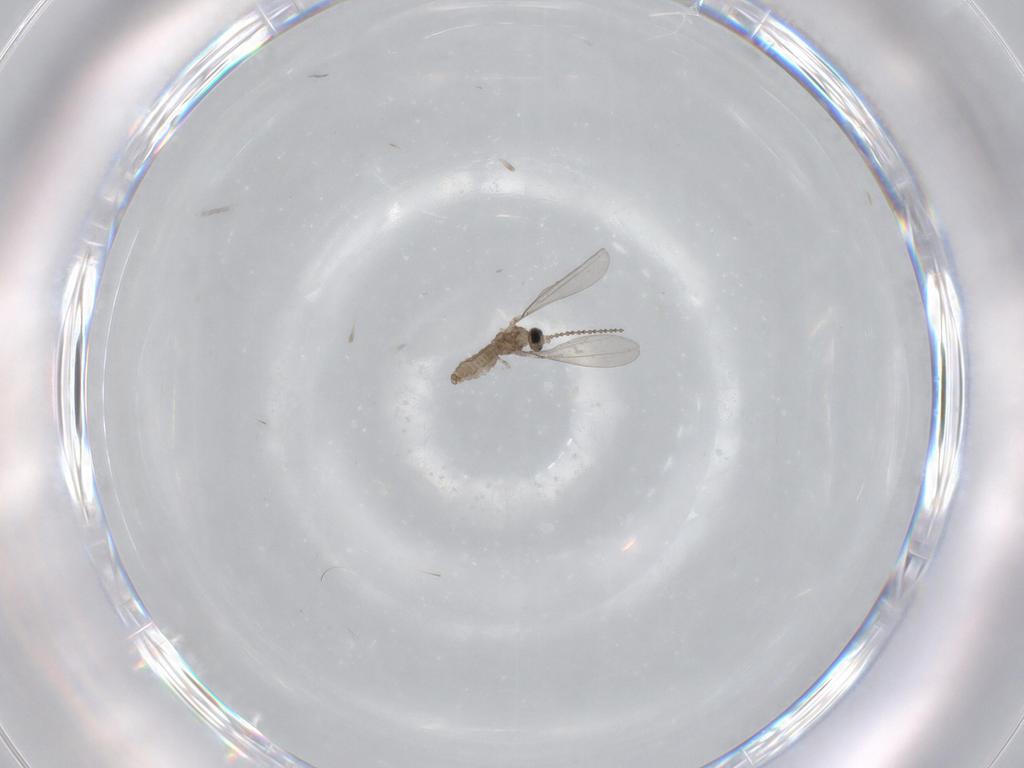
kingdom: Animalia
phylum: Arthropoda
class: Insecta
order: Diptera
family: Cecidomyiidae
